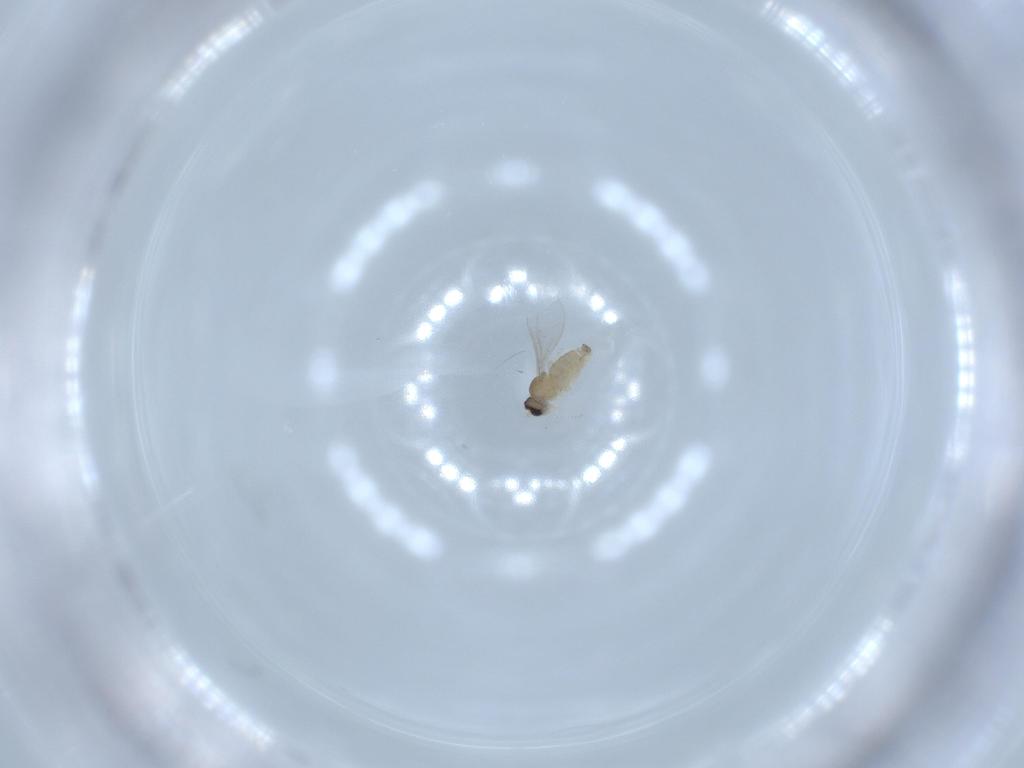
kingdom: Animalia
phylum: Arthropoda
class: Insecta
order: Diptera
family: Cecidomyiidae
